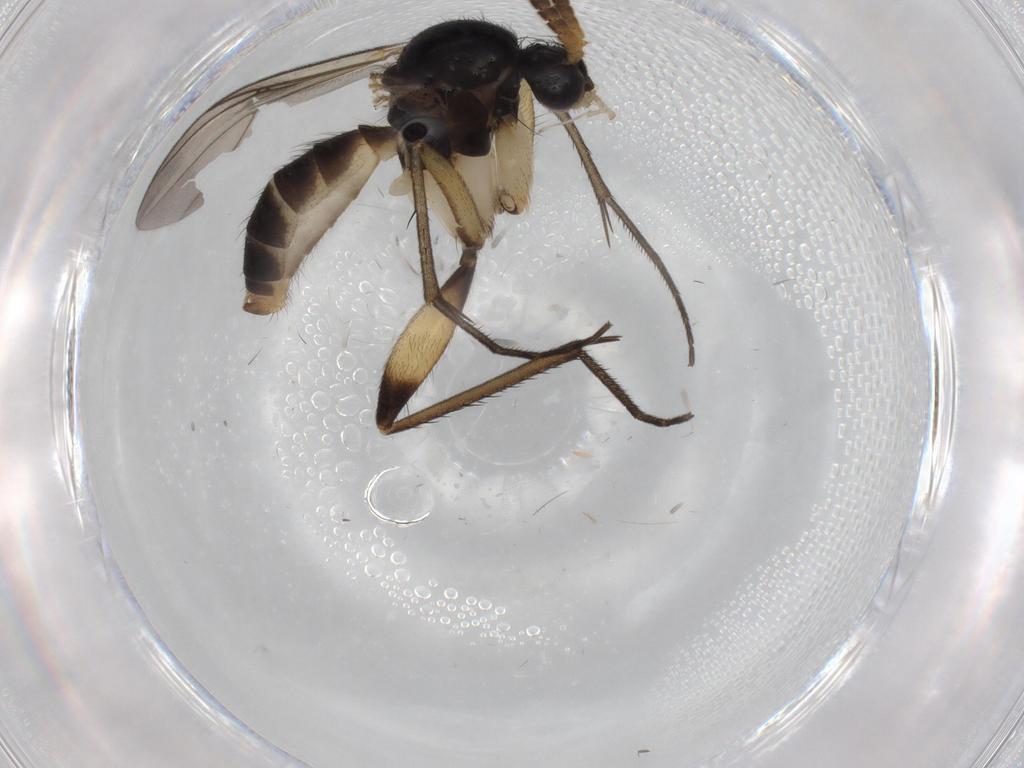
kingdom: Animalia
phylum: Arthropoda
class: Insecta
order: Diptera
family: Cecidomyiidae
